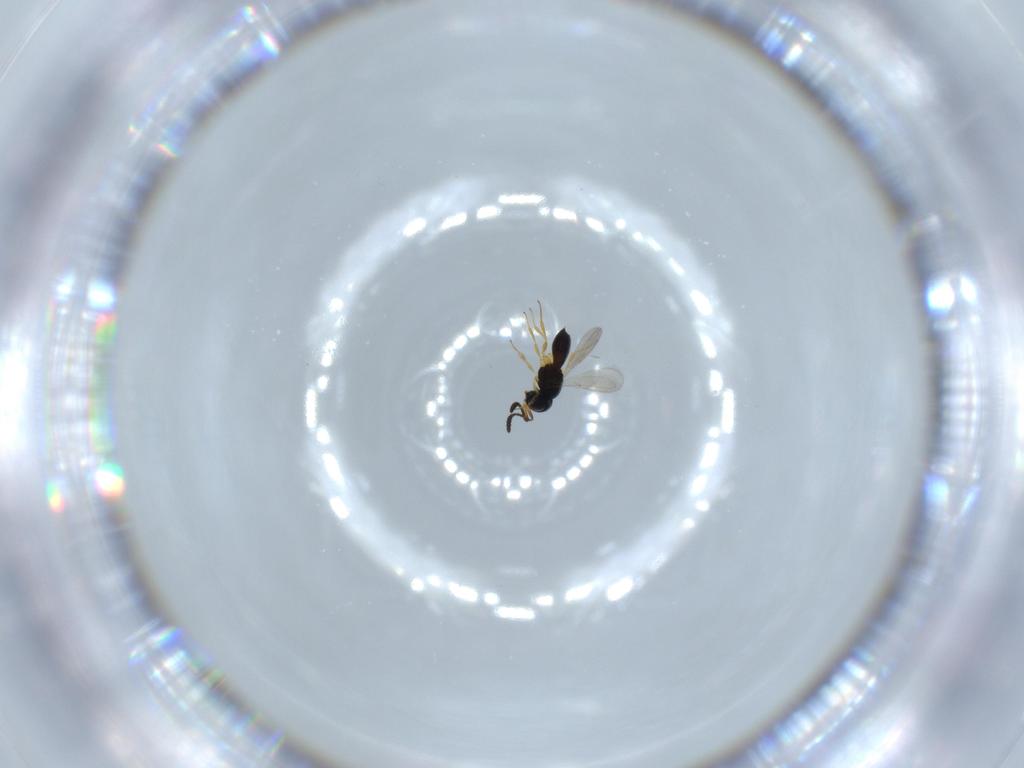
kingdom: Animalia
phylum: Arthropoda
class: Insecta
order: Hymenoptera
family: Scelionidae
